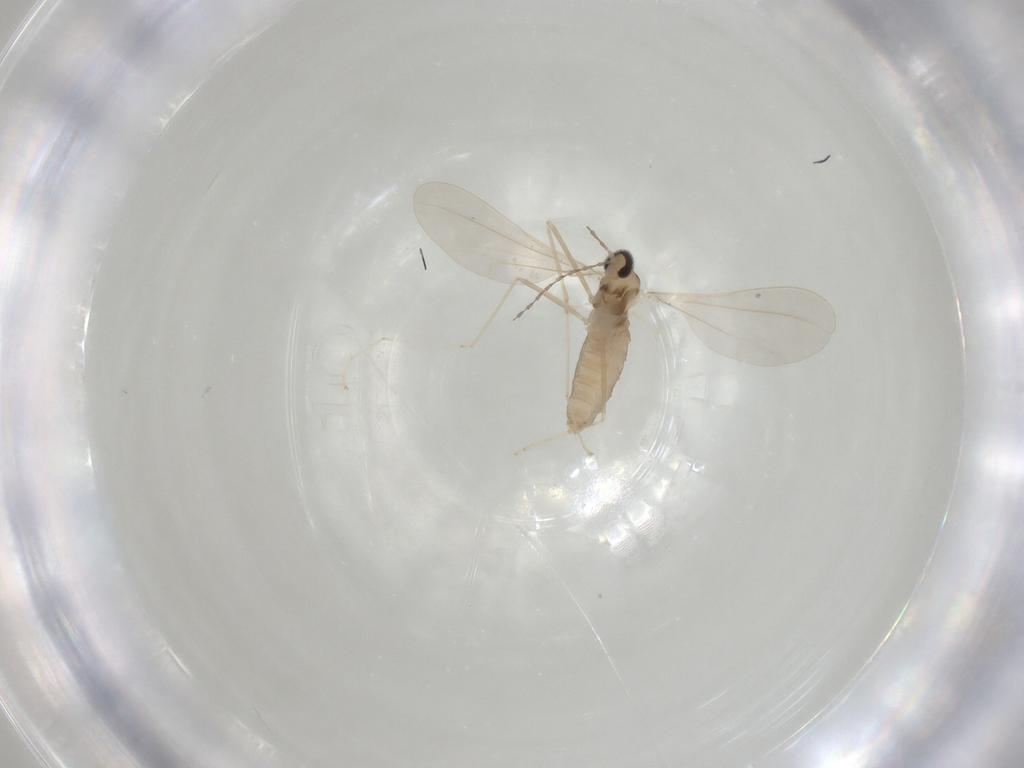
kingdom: Animalia
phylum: Arthropoda
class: Insecta
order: Diptera
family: Cecidomyiidae
